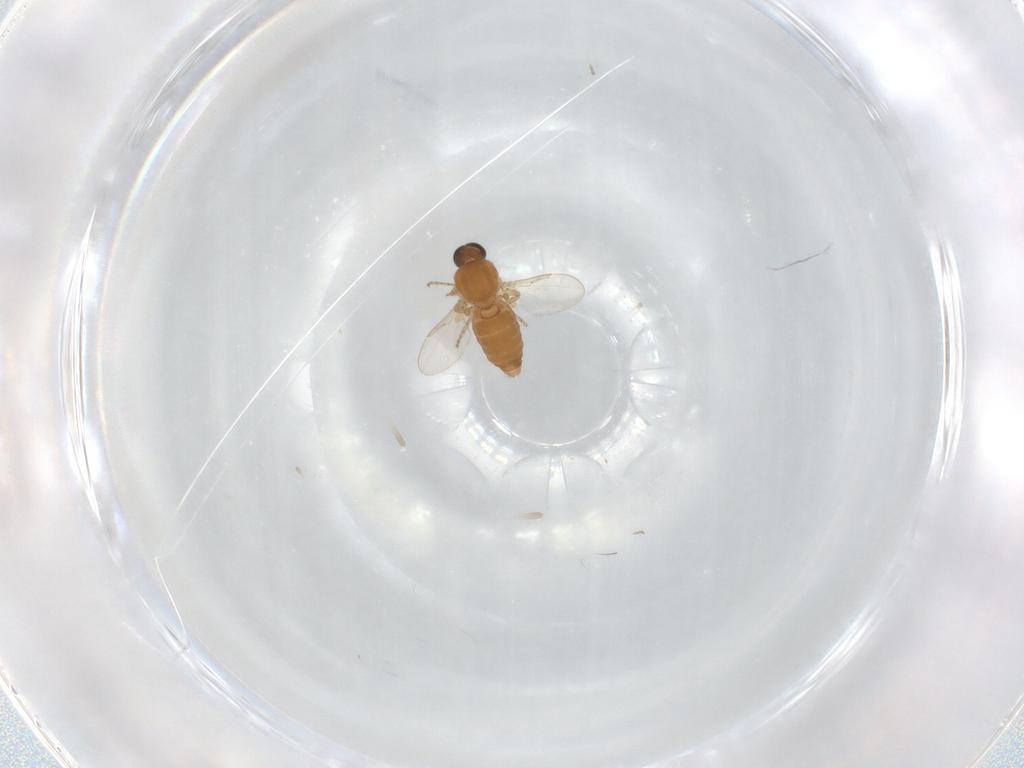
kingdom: Animalia
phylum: Arthropoda
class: Insecta
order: Diptera
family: Ceratopogonidae
